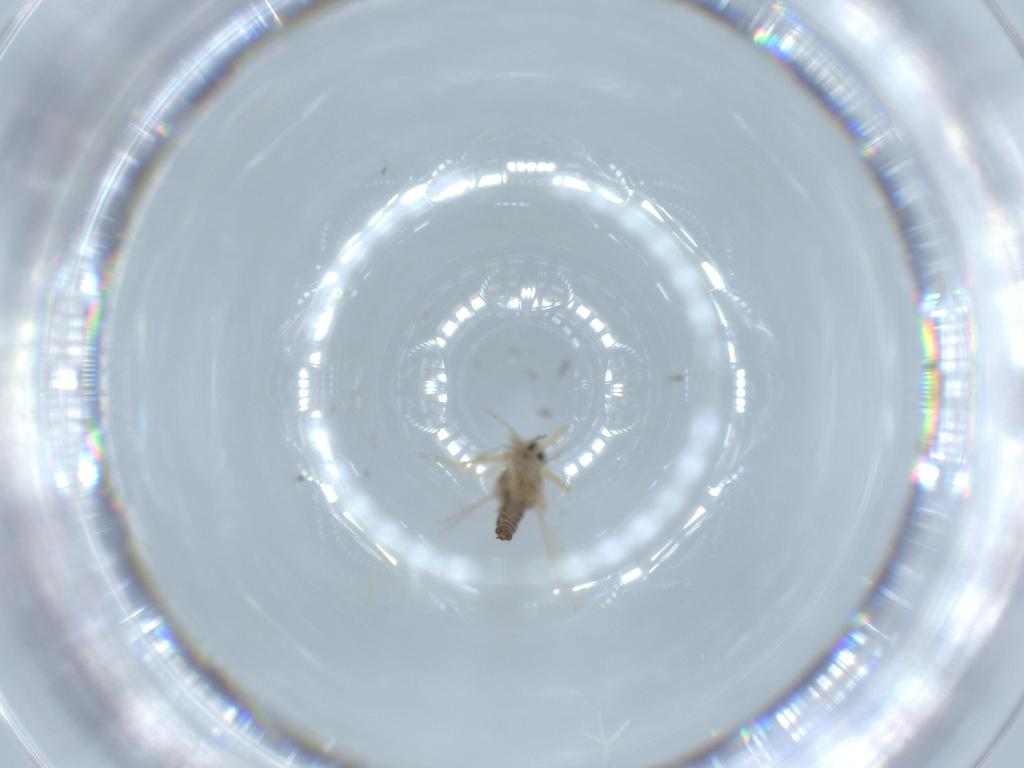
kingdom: Animalia
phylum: Arthropoda
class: Insecta
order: Diptera
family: Ceratopogonidae
